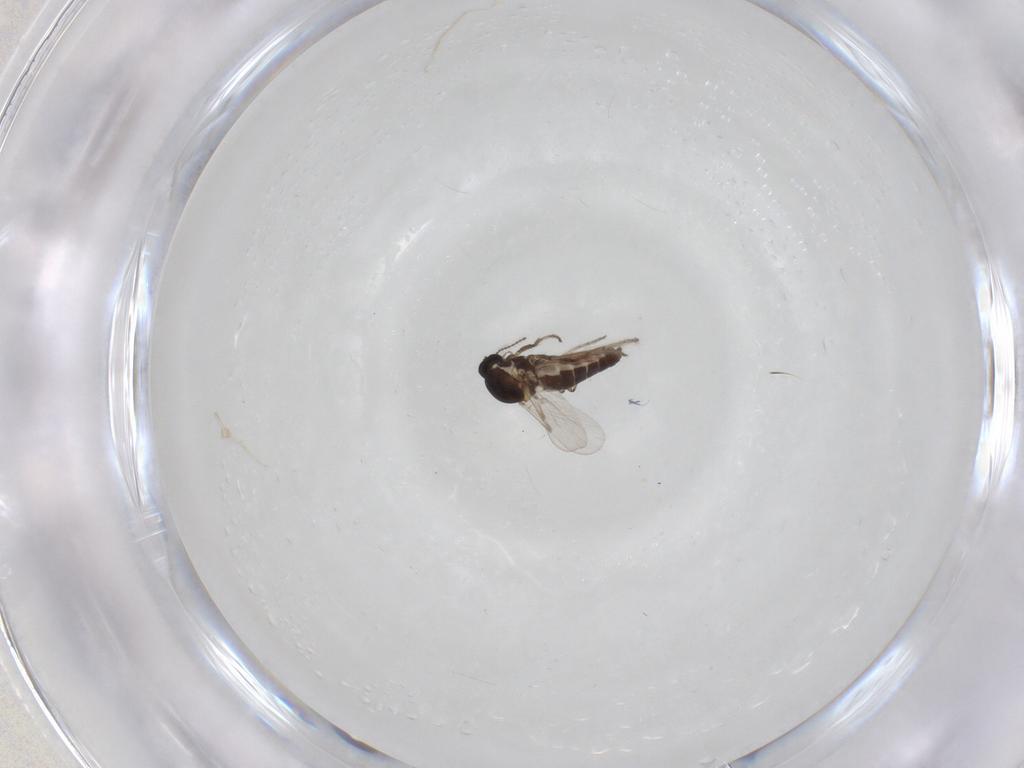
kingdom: Animalia
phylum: Arthropoda
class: Insecta
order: Diptera
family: Ceratopogonidae
